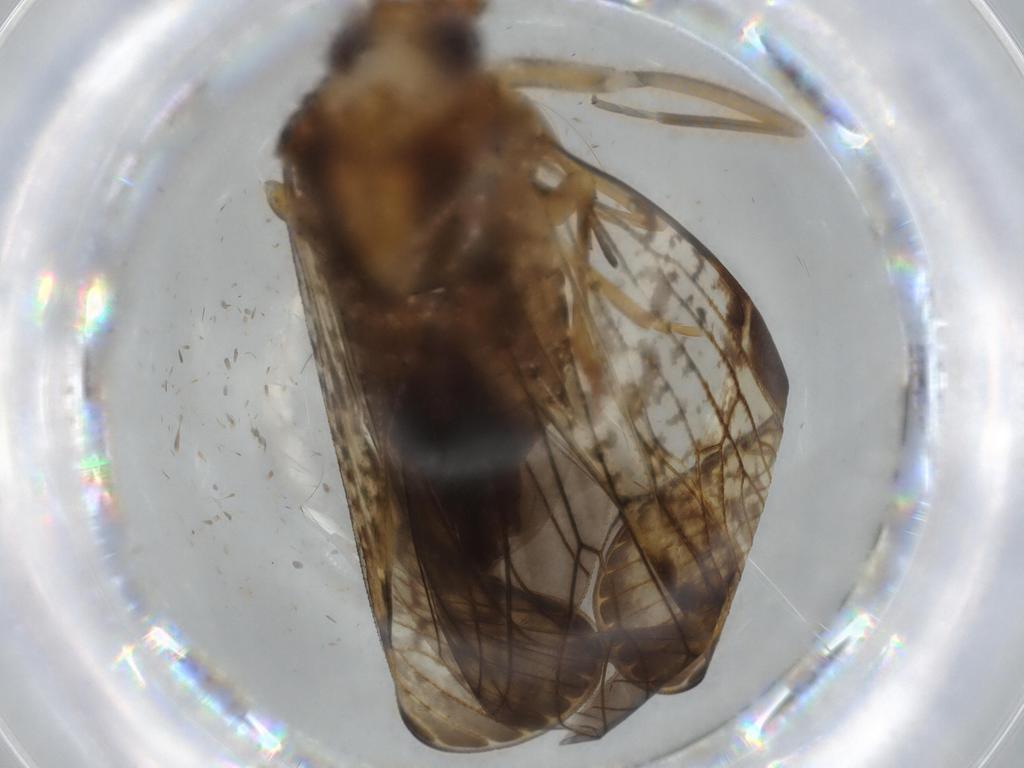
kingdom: Animalia
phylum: Arthropoda
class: Insecta
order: Hemiptera
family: Cixiidae
